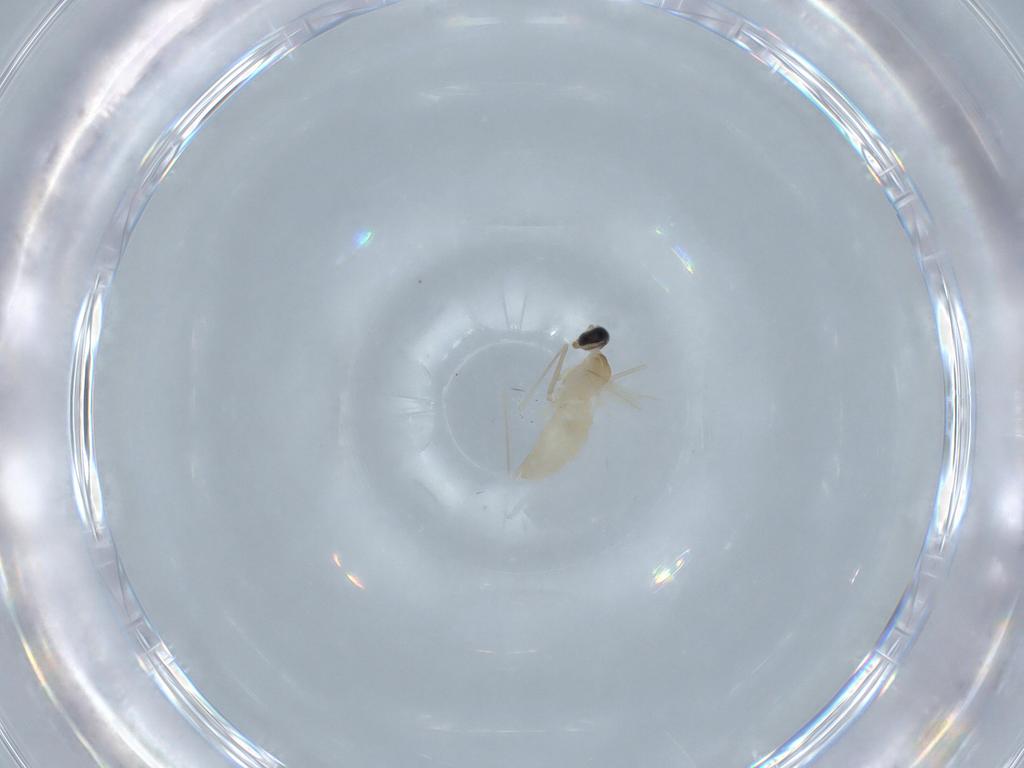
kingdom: Animalia
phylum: Arthropoda
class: Insecta
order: Diptera
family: Cecidomyiidae
